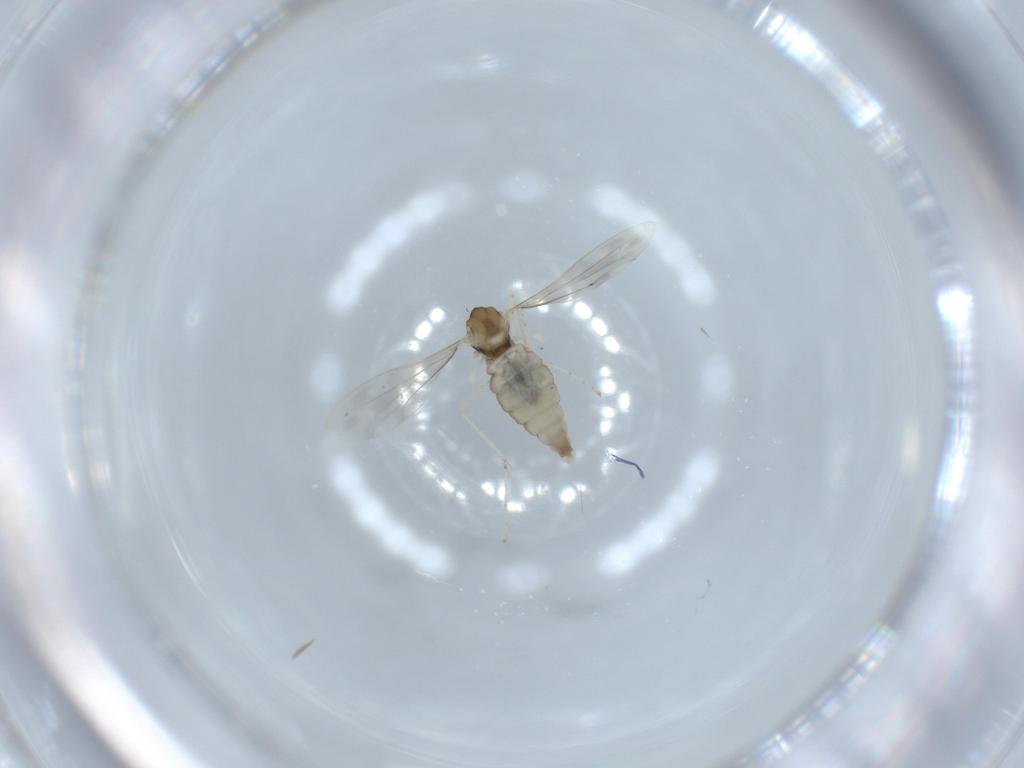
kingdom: Animalia
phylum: Arthropoda
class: Insecta
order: Diptera
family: Cecidomyiidae
